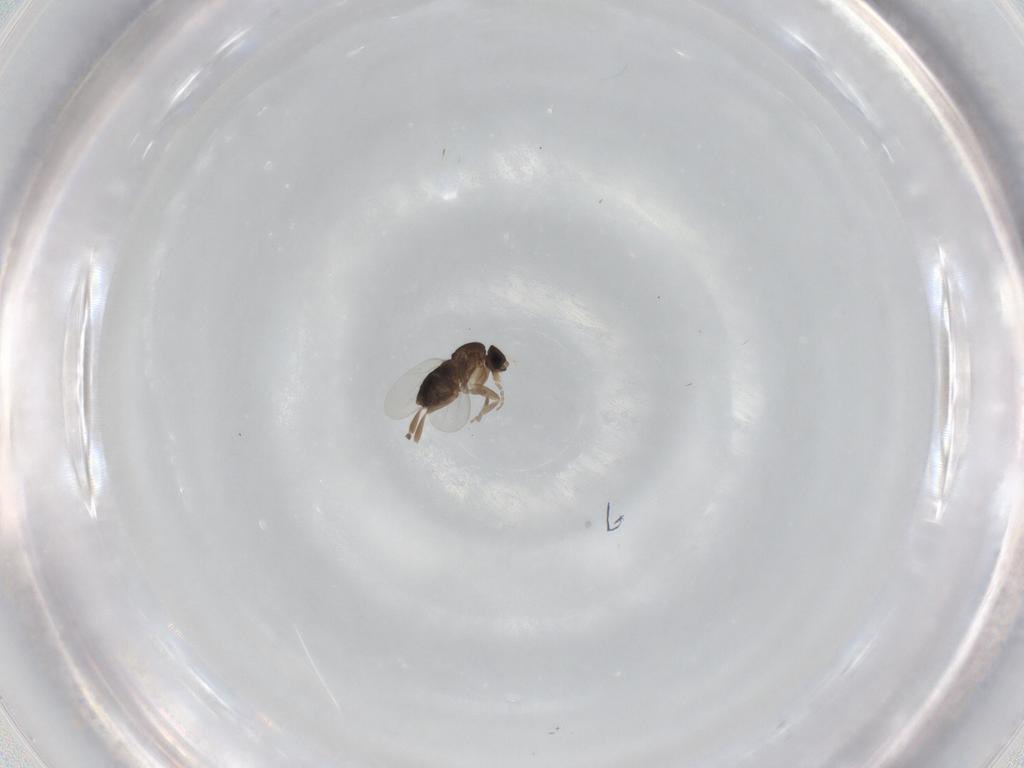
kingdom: Animalia
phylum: Arthropoda
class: Insecta
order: Diptera
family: Phoridae
